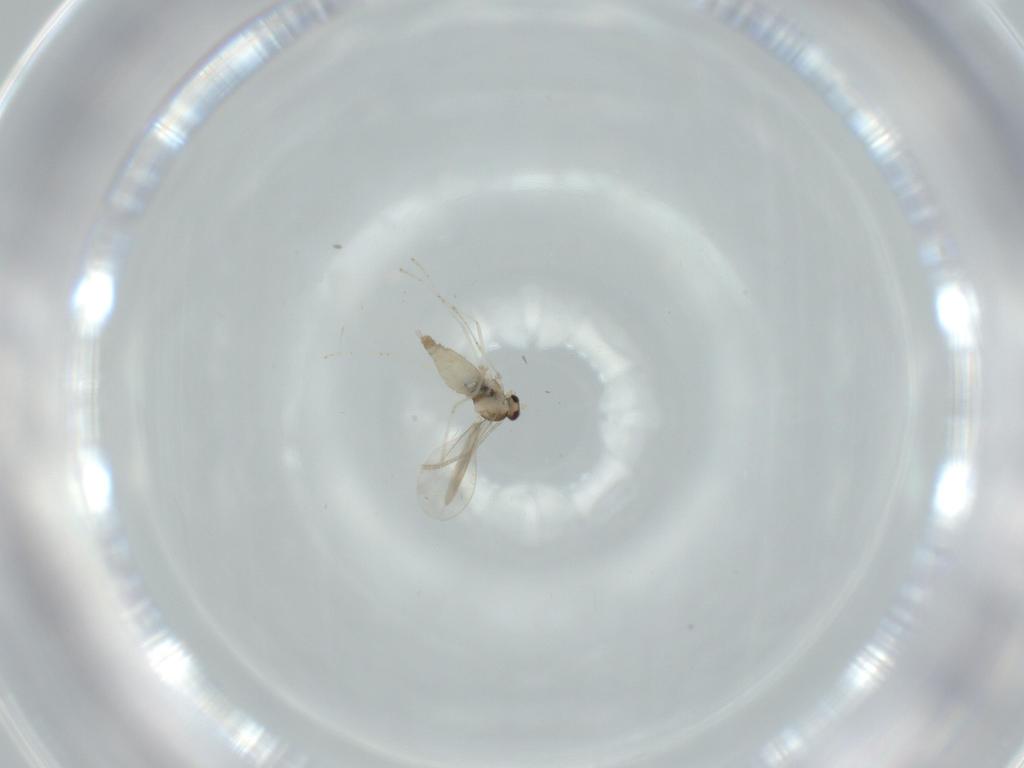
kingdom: Animalia
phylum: Arthropoda
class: Insecta
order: Diptera
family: Cecidomyiidae
